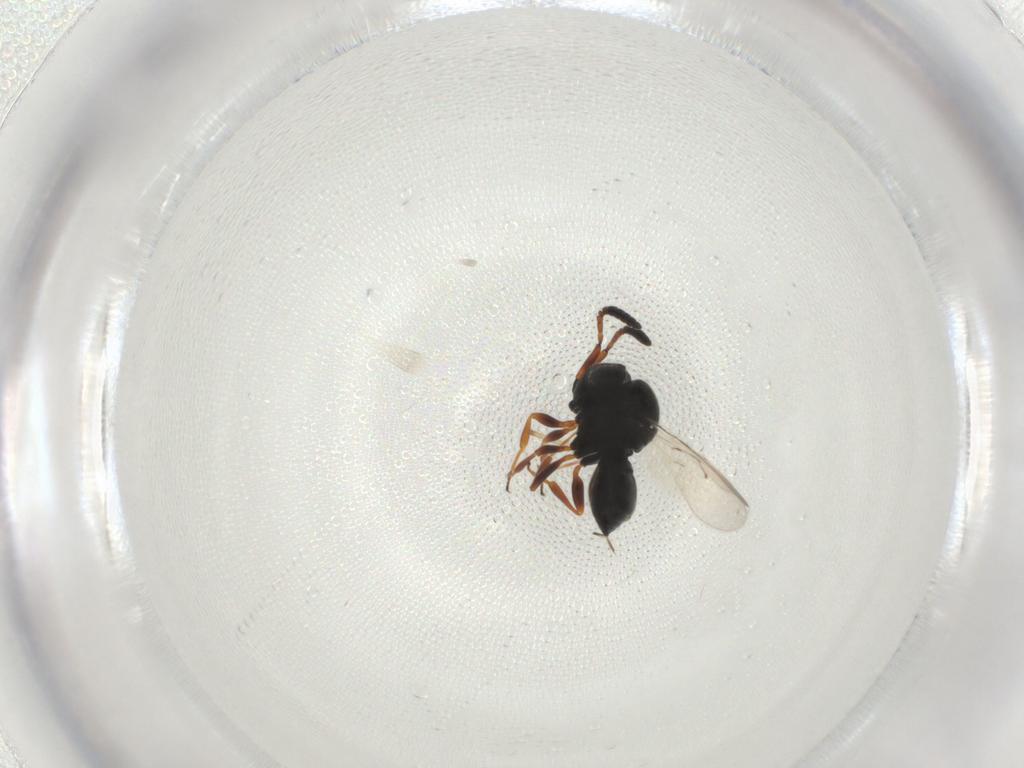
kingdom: Animalia
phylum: Arthropoda
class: Insecta
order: Hymenoptera
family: Scelionidae
